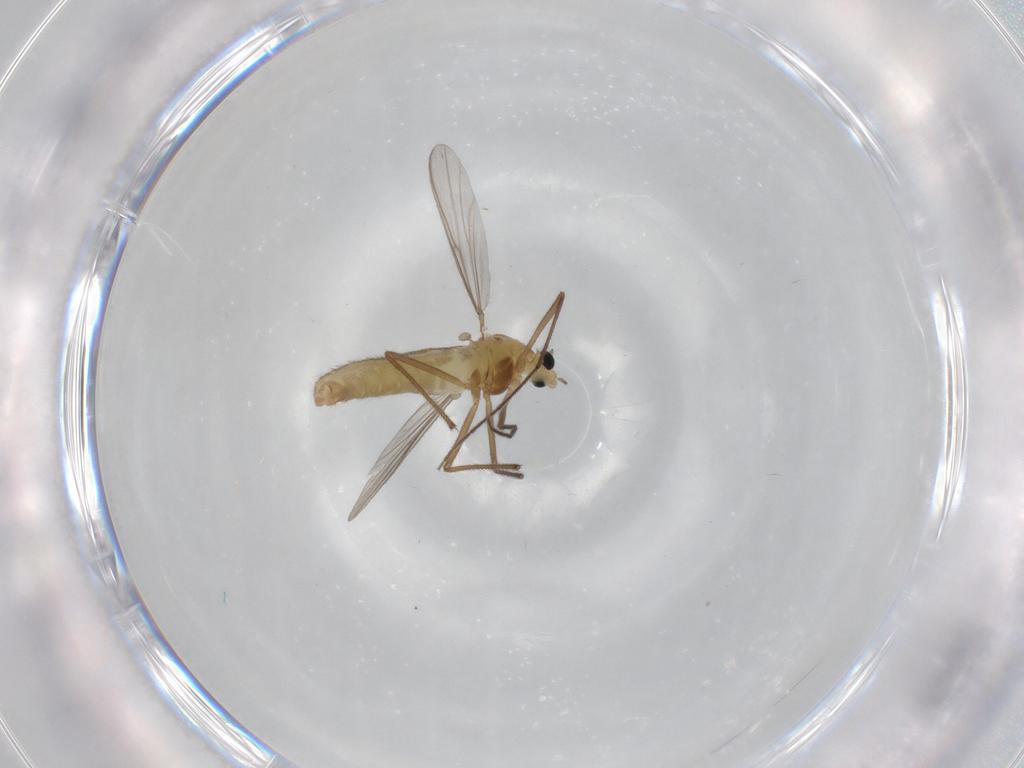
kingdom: Animalia
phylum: Arthropoda
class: Insecta
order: Diptera
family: Chironomidae
